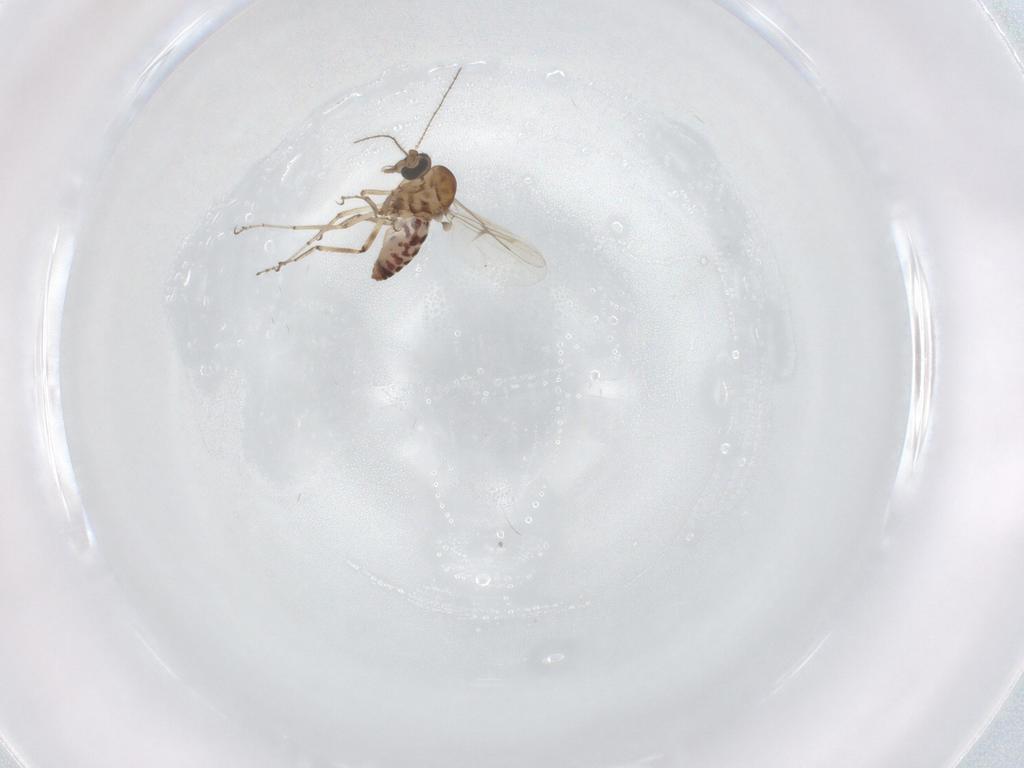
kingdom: Animalia
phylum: Arthropoda
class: Insecta
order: Diptera
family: Ceratopogonidae
